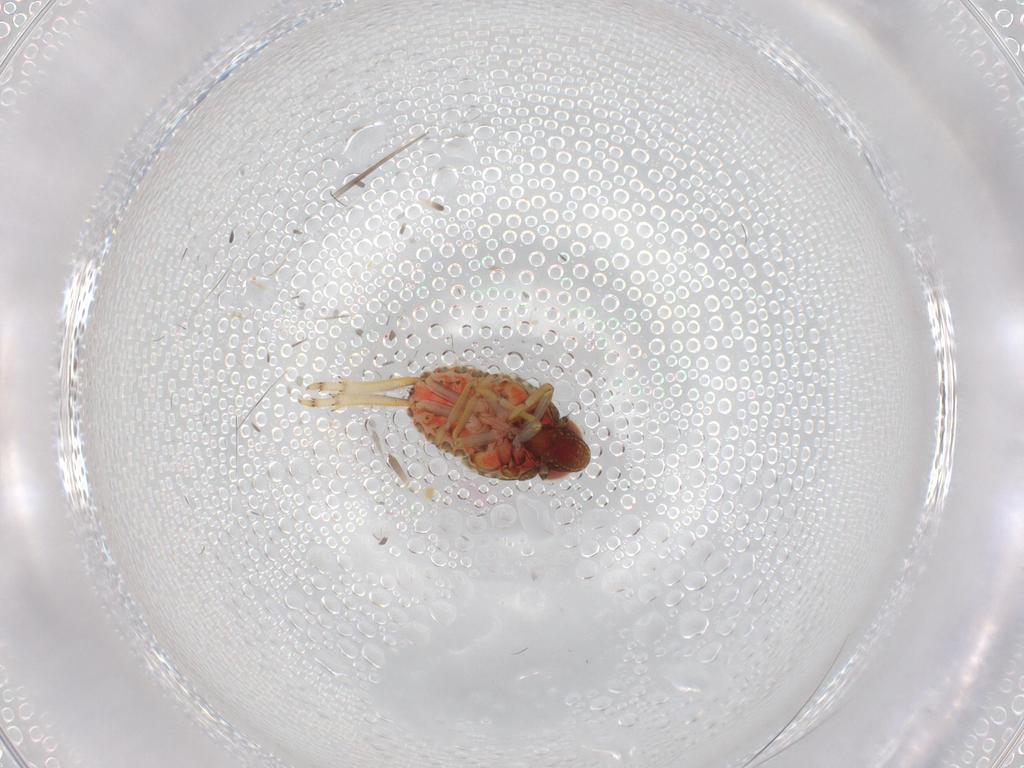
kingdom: Animalia
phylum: Arthropoda
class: Insecta
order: Hemiptera
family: Issidae
